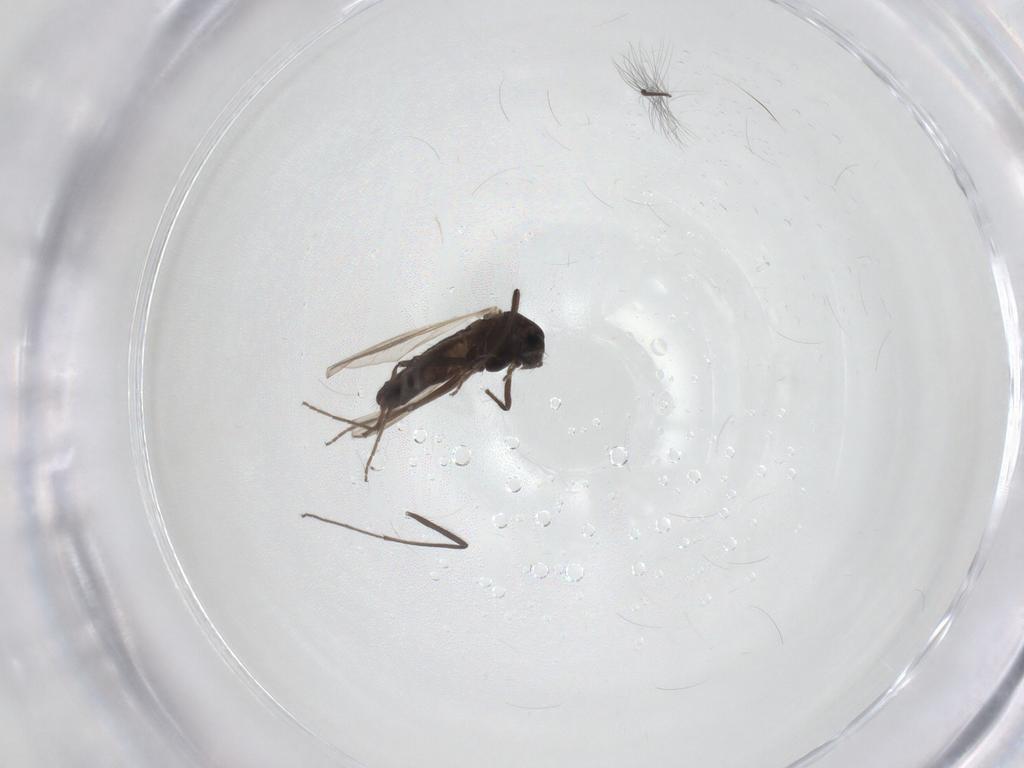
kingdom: Animalia
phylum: Arthropoda
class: Insecta
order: Diptera
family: Chironomidae
